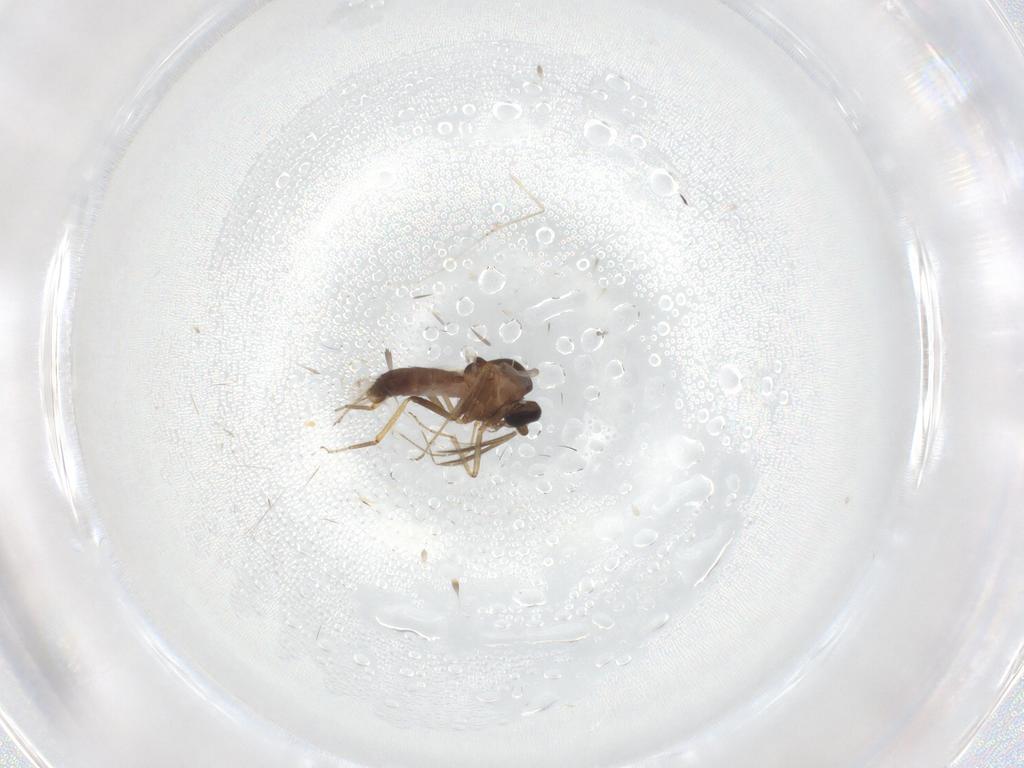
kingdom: Animalia
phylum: Arthropoda
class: Insecta
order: Diptera
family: Ceratopogonidae
